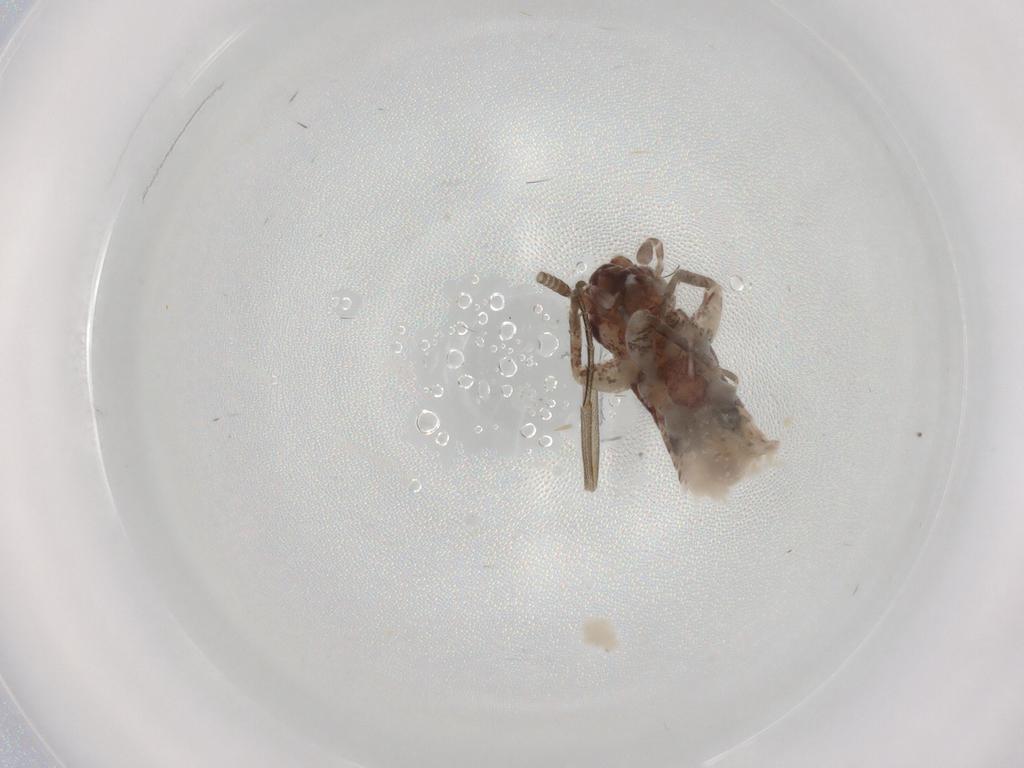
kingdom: Animalia
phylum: Arthropoda
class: Insecta
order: Diptera
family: Phoridae
